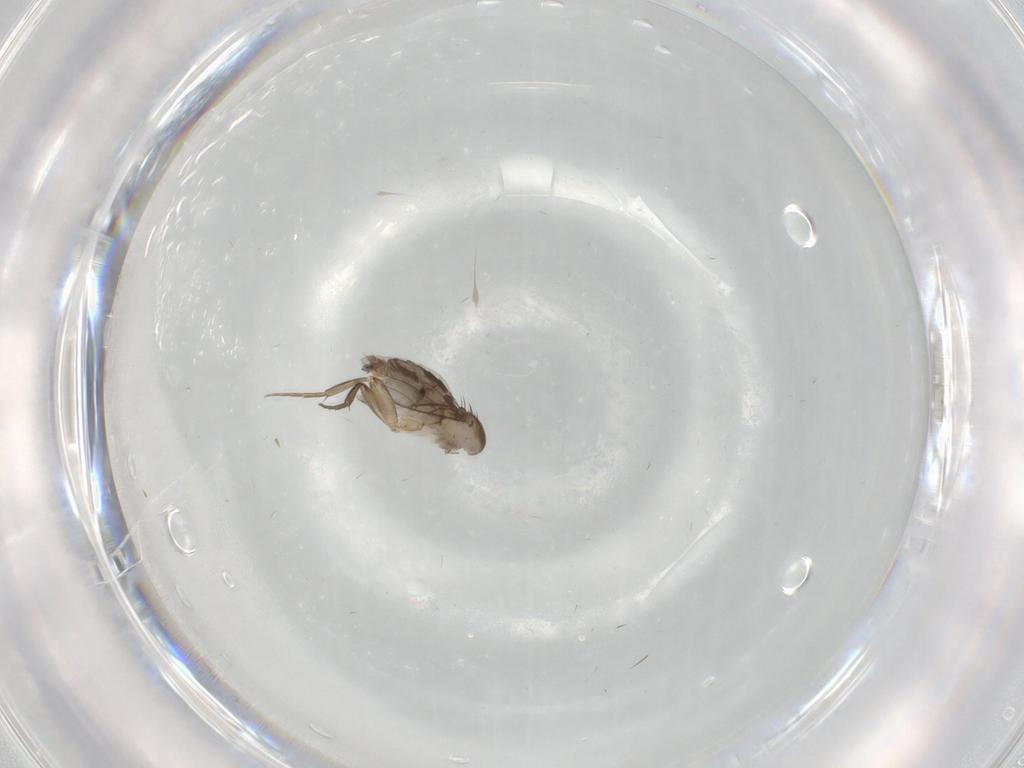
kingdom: Animalia
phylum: Arthropoda
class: Insecta
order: Diptera
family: Phoridae
